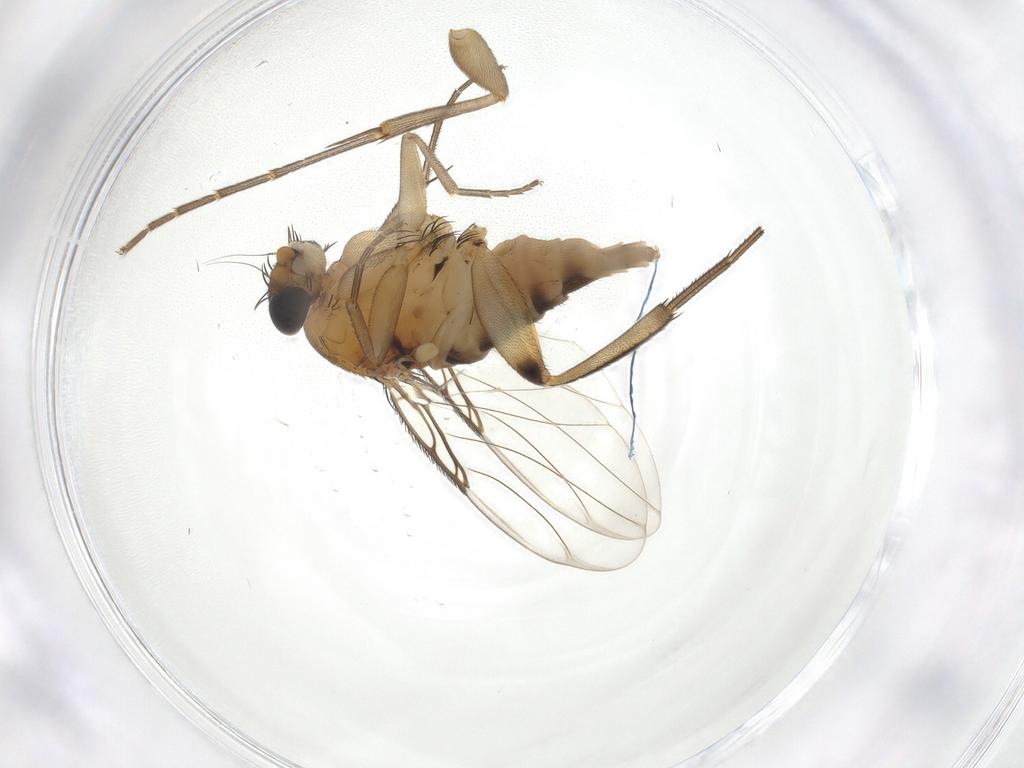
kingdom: Animalia
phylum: Arthropoda
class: Insecta
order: Diptera
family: Phoridae
